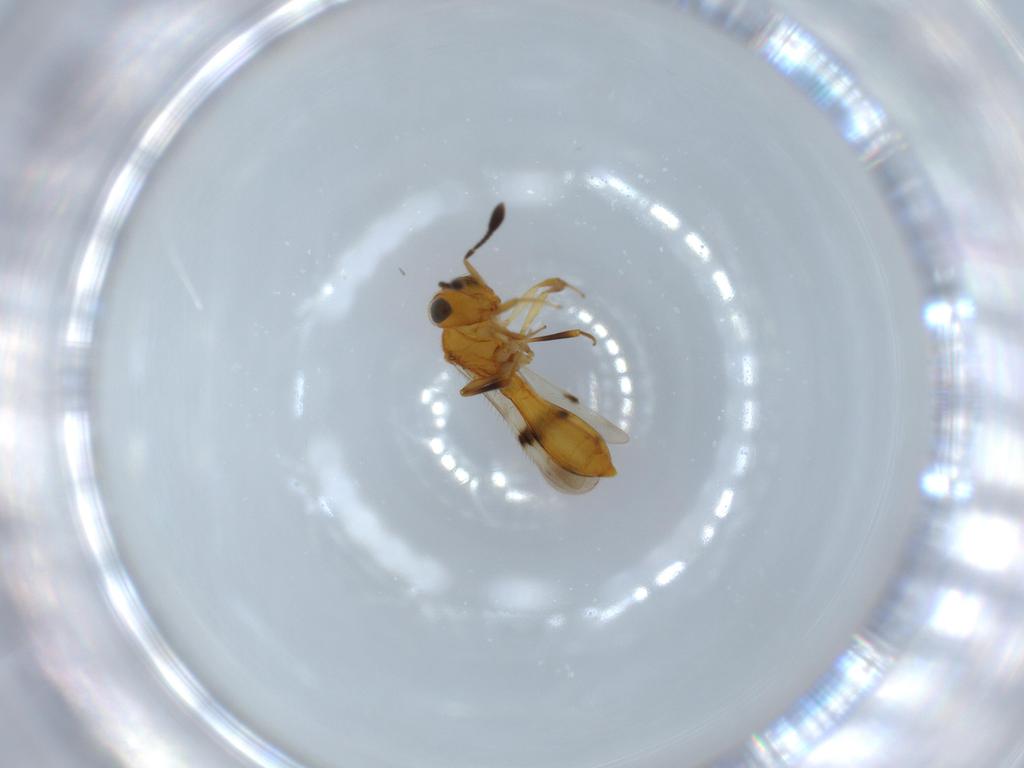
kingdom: Animalia
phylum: Arthropoda
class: Insecta
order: Hymenoptera
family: Scelionidae
